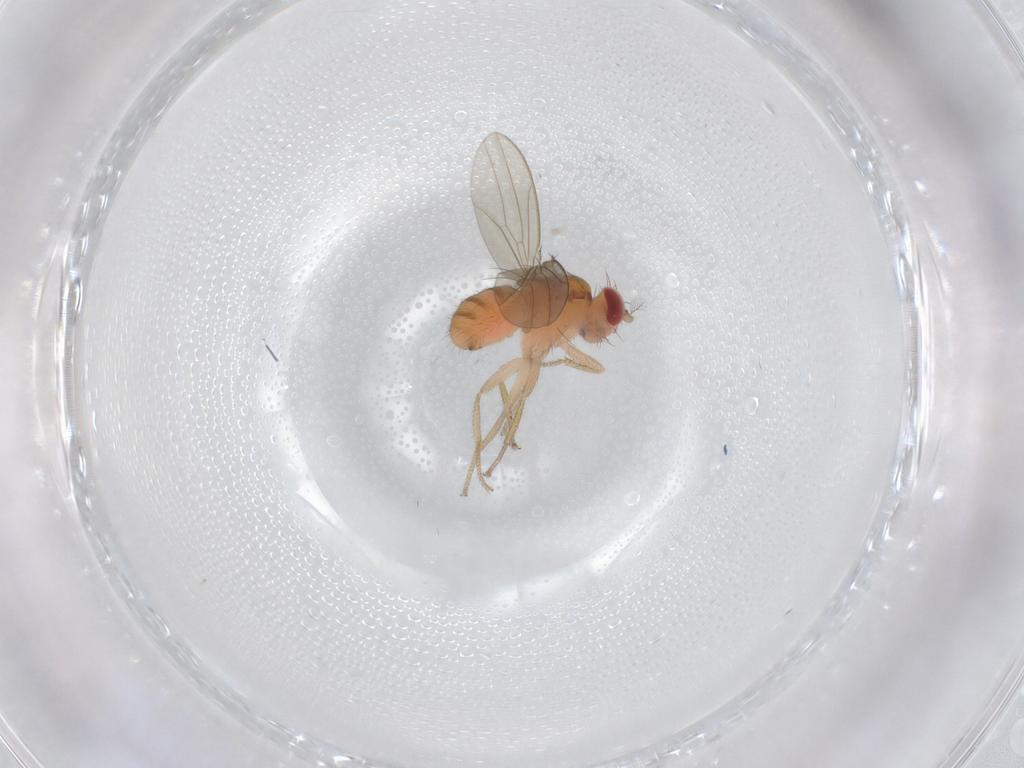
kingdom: Animalia
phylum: Arthropoda
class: Insecta
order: Diptera
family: Drosophilidae
